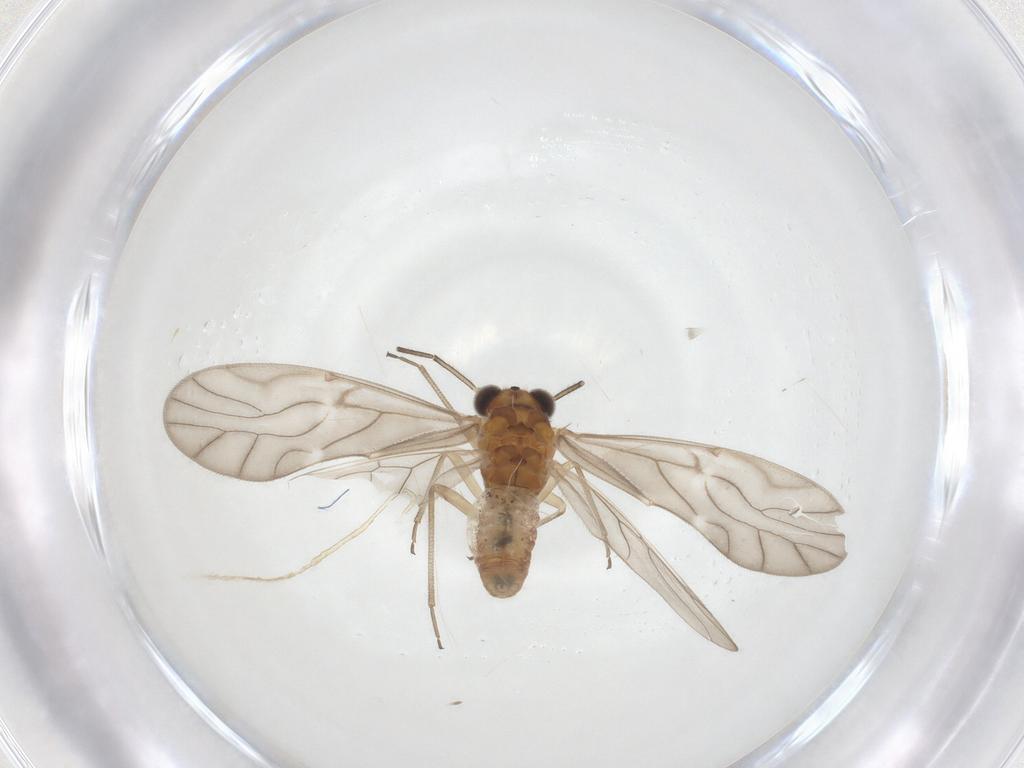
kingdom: Animalia
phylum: Arthropoda
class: Insecta
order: Psocodea
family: Caeciliusidae
